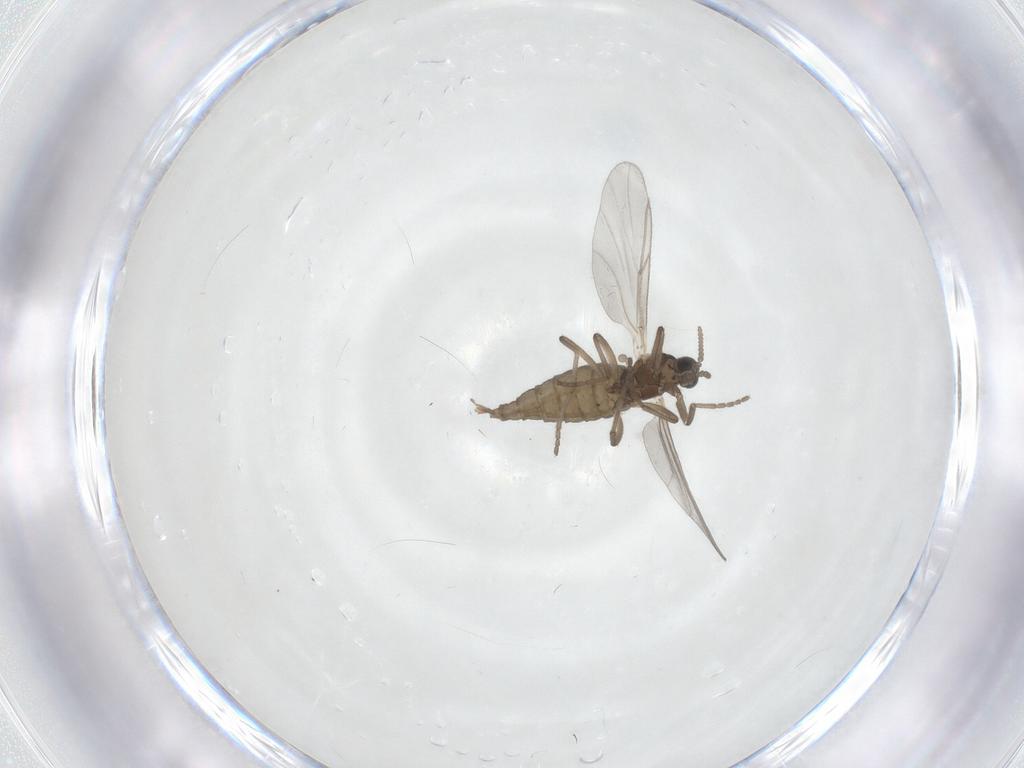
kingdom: Animalia
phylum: Arthropoda
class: Insecta
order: Diptera
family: Cecidomyiidae
